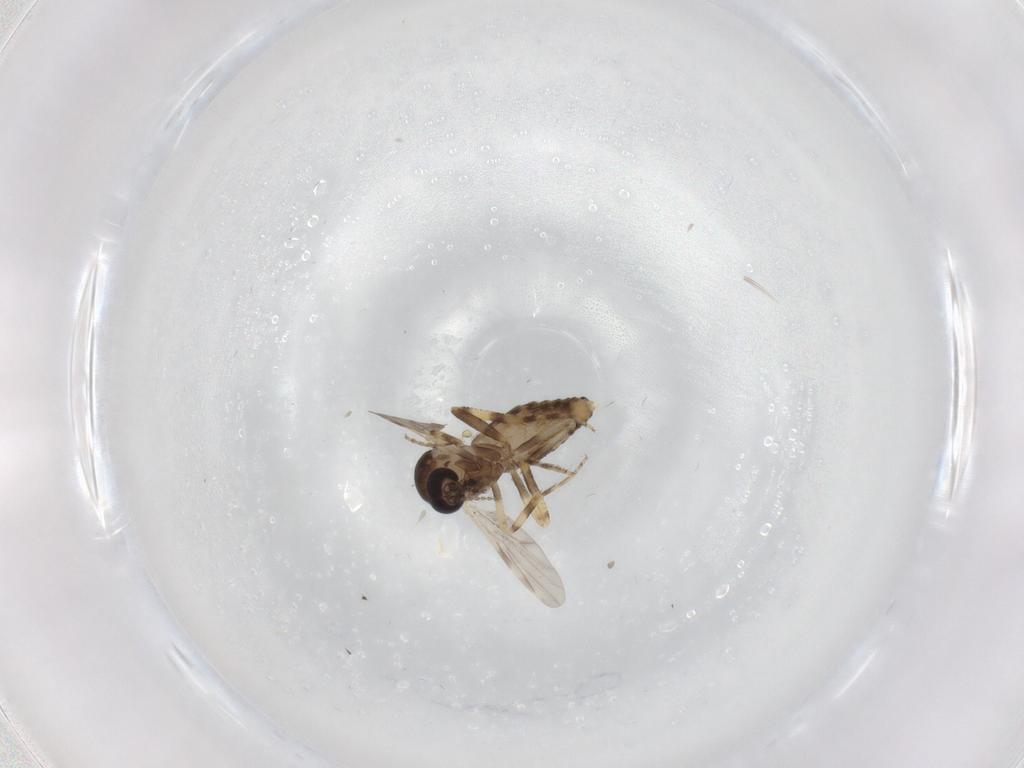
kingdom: Animalia
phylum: Arthropoda
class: Insecta
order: Diptera
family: Ceratopogonidae
